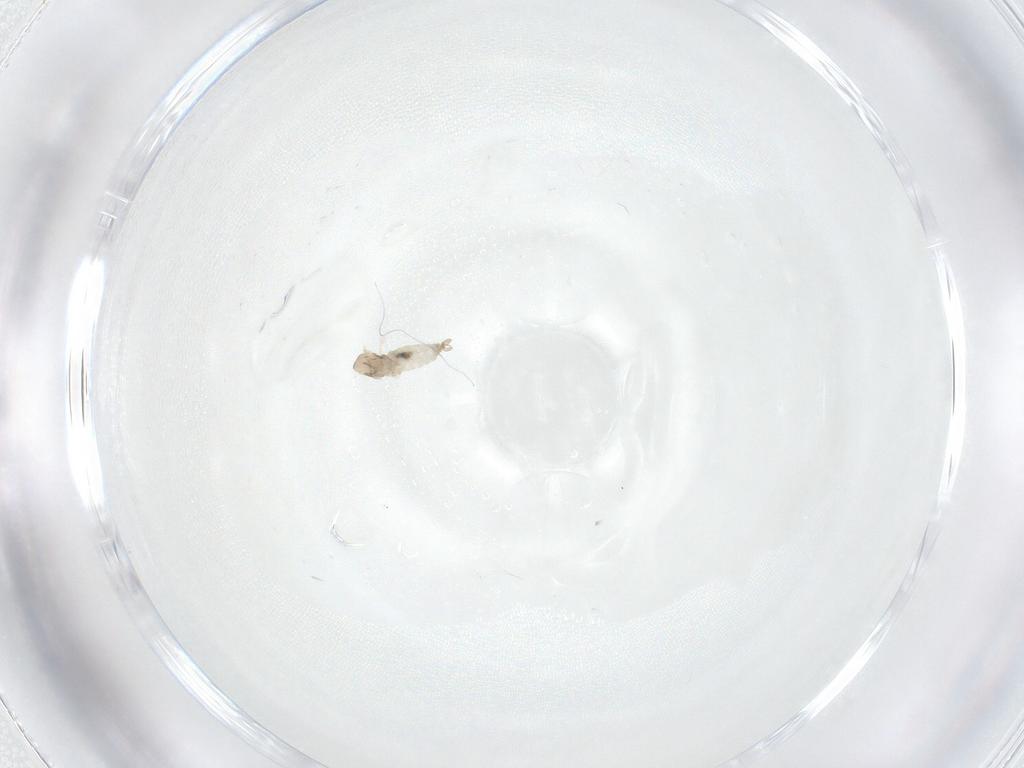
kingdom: Animalia
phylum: Arthropoda
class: Insecta
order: Diptera
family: Cecidomyiidae
